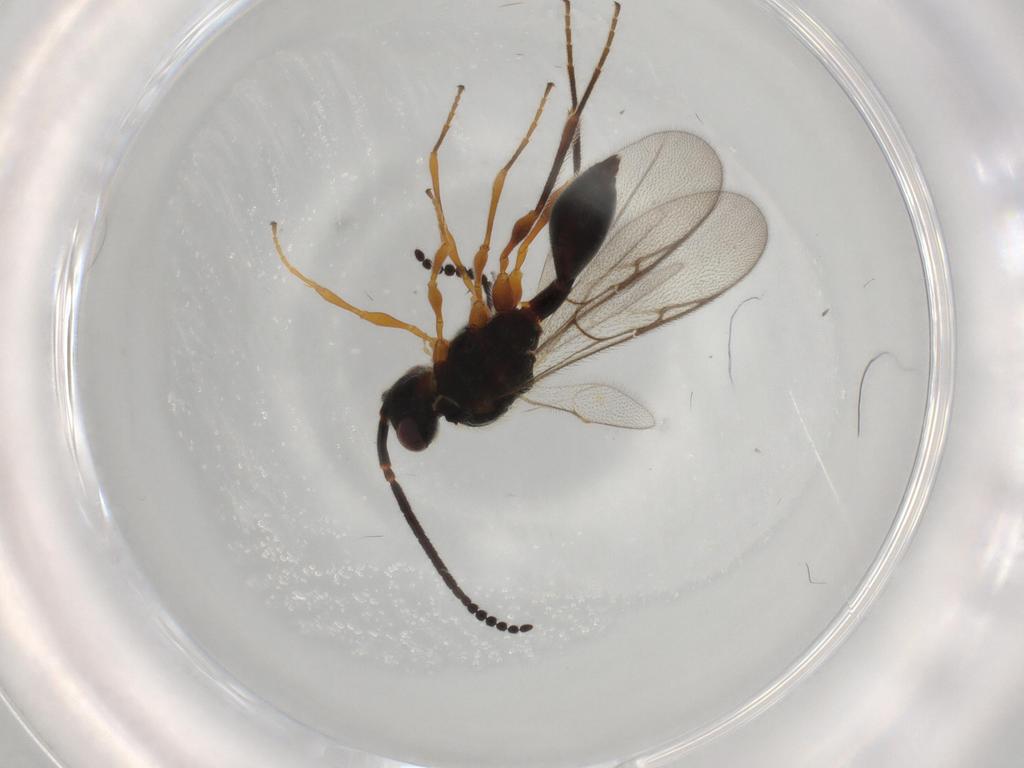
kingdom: Animalia
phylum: Arthropoda
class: Insecta
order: Hymenoptera
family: Diapriidae
